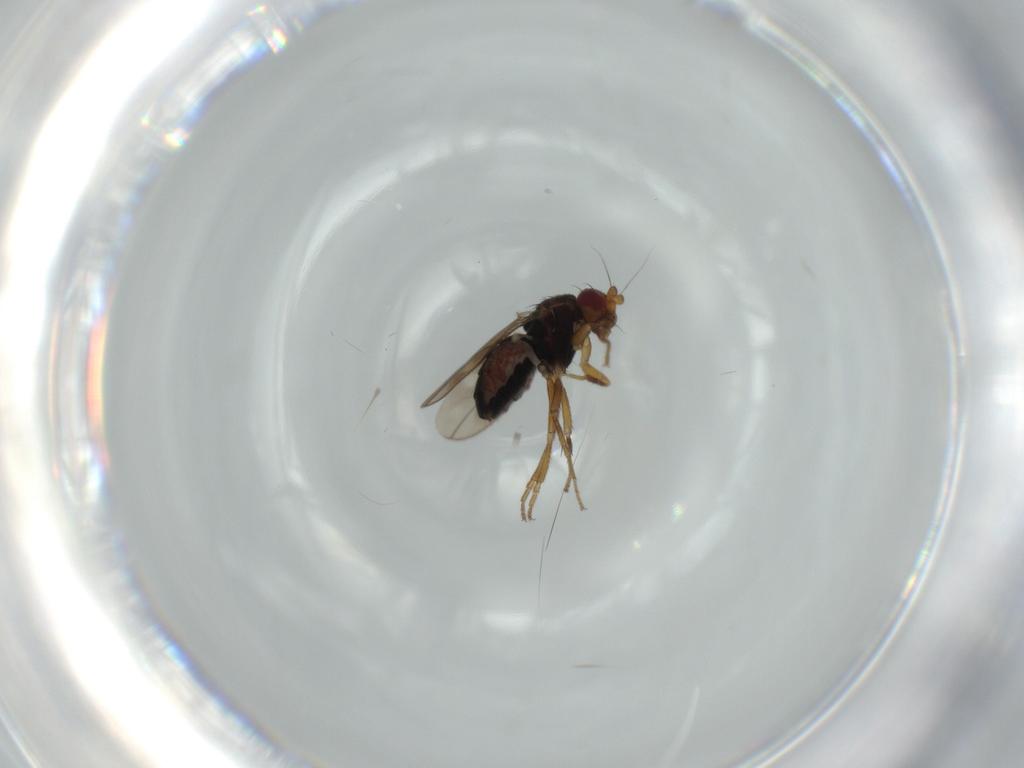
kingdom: Animalia
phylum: Arthropoda
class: Insecta
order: Diptera
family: Sphaeroceridae
